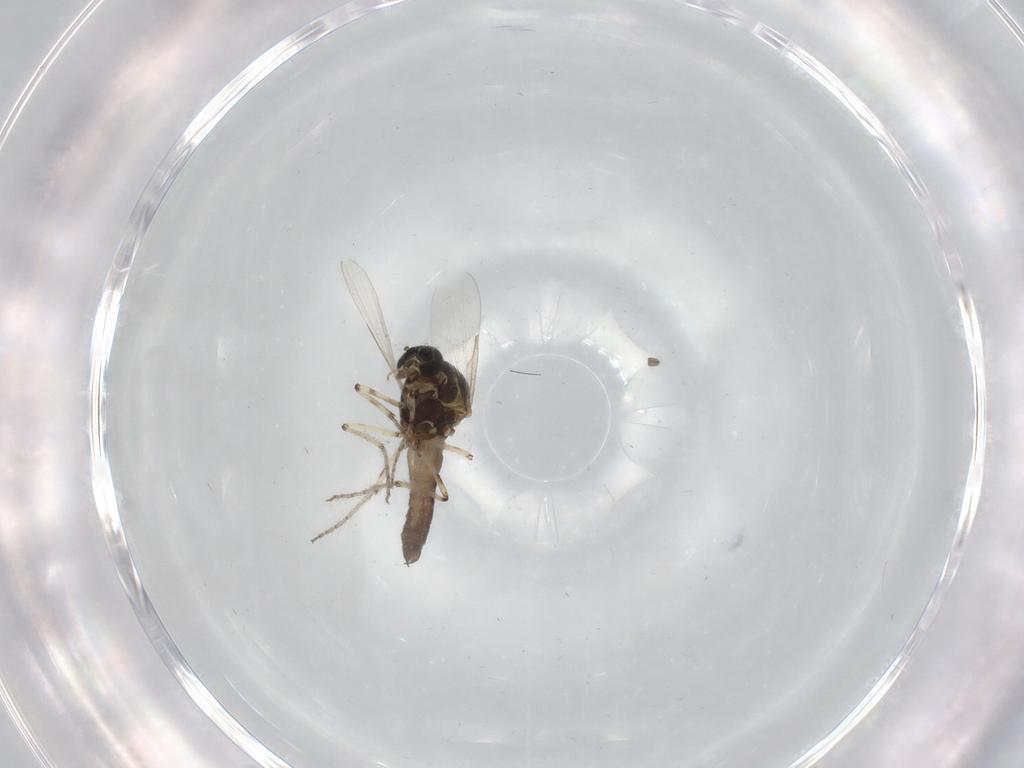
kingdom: Animalia
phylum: Arthropoda
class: Insecta
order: Diptera
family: Ceratopogonidae
